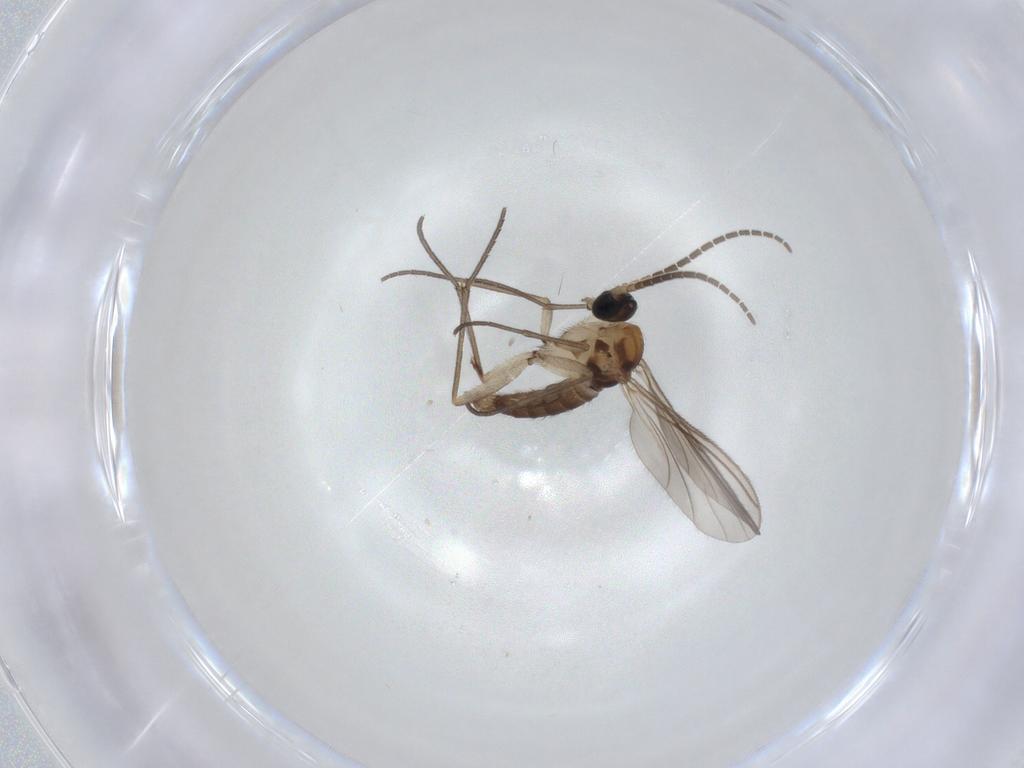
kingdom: Animalia
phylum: Arthropoda
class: Insecta
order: Diptera
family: Sciaridae
